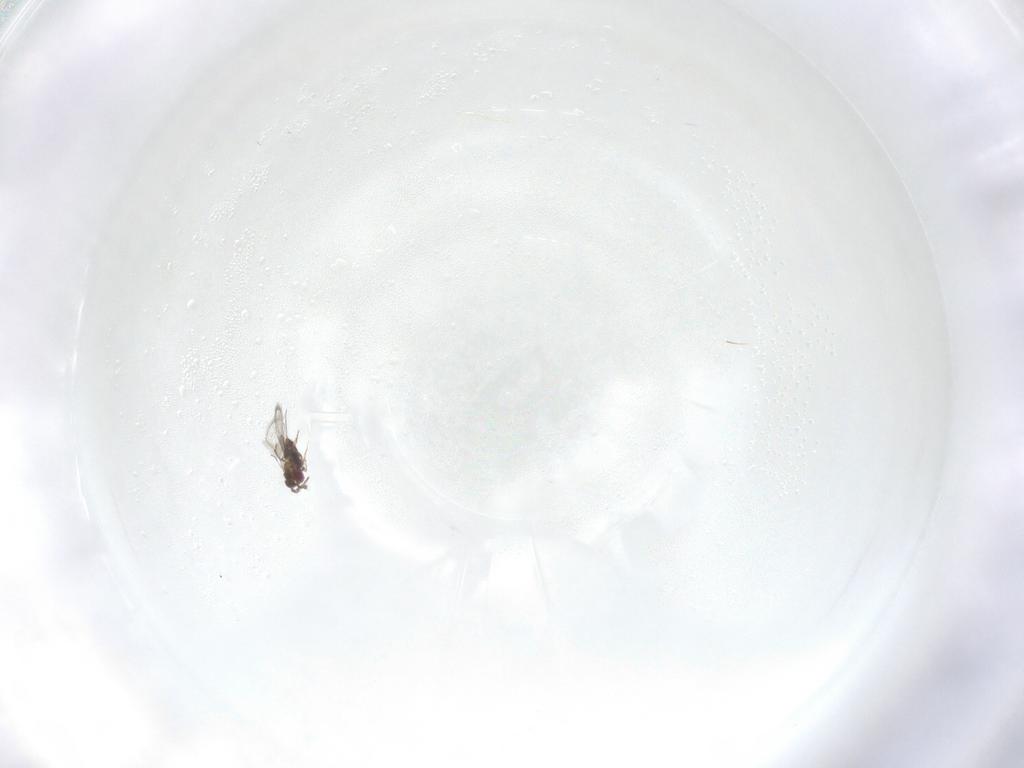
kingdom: Animalia
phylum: Arthropoda
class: Insecta
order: Hymenoptera
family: Trichogrammatidae
